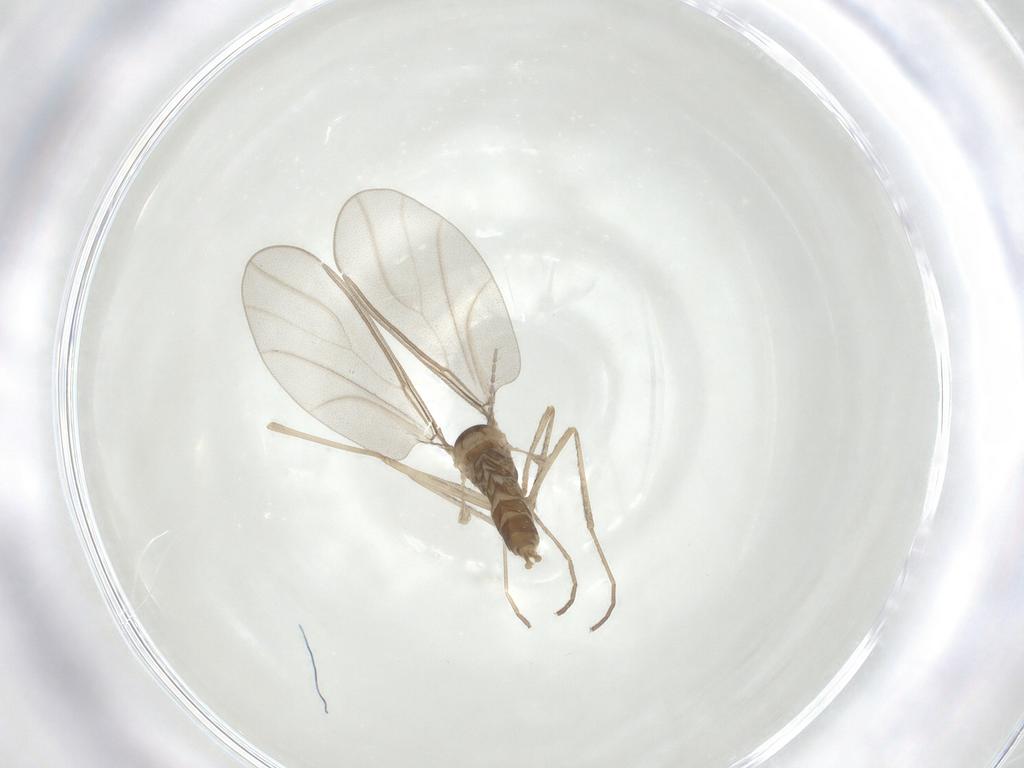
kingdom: Animalia
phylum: Arthropoda
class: Insecta
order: Diptera
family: Cecidomyiidae
